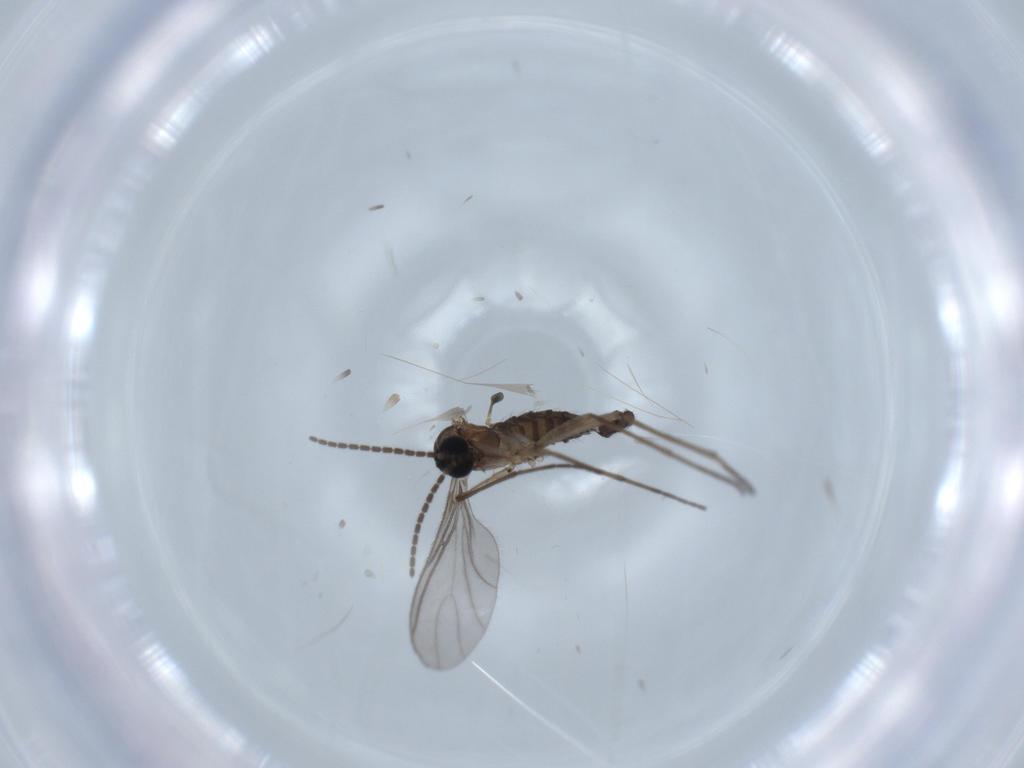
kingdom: Animalia
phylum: Arthropoda
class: Insecta
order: Diptera
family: Sciaridae
